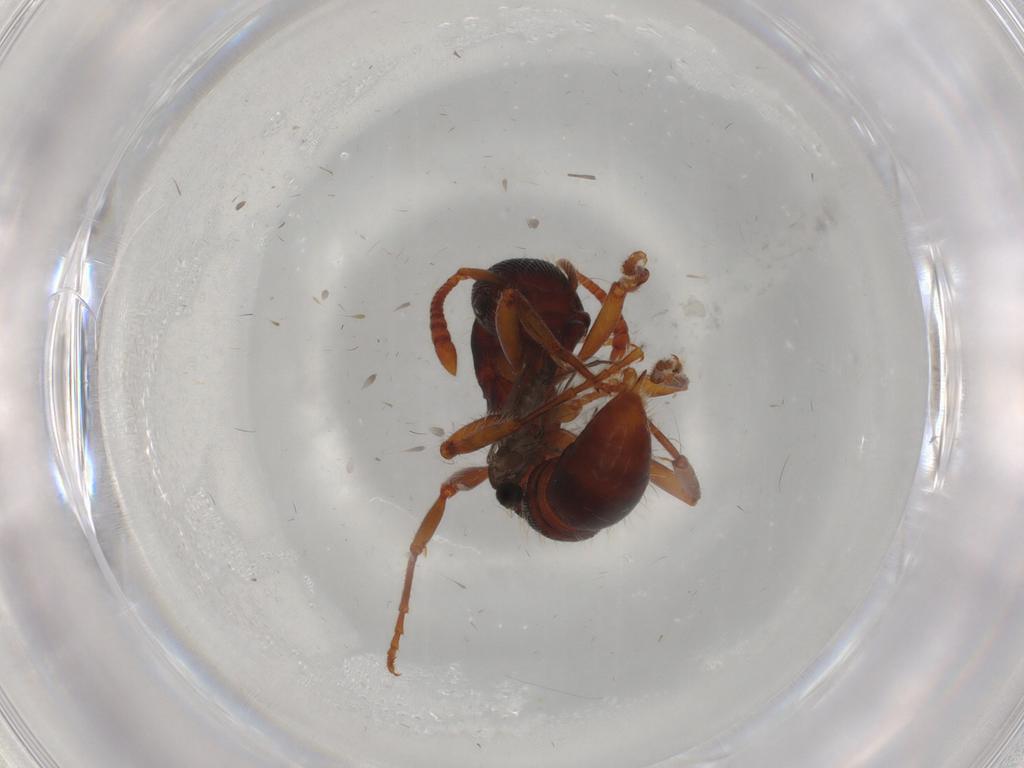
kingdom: Animalia
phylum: Arthropoda
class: Insecta
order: Hymenoptera
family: Formicidae
